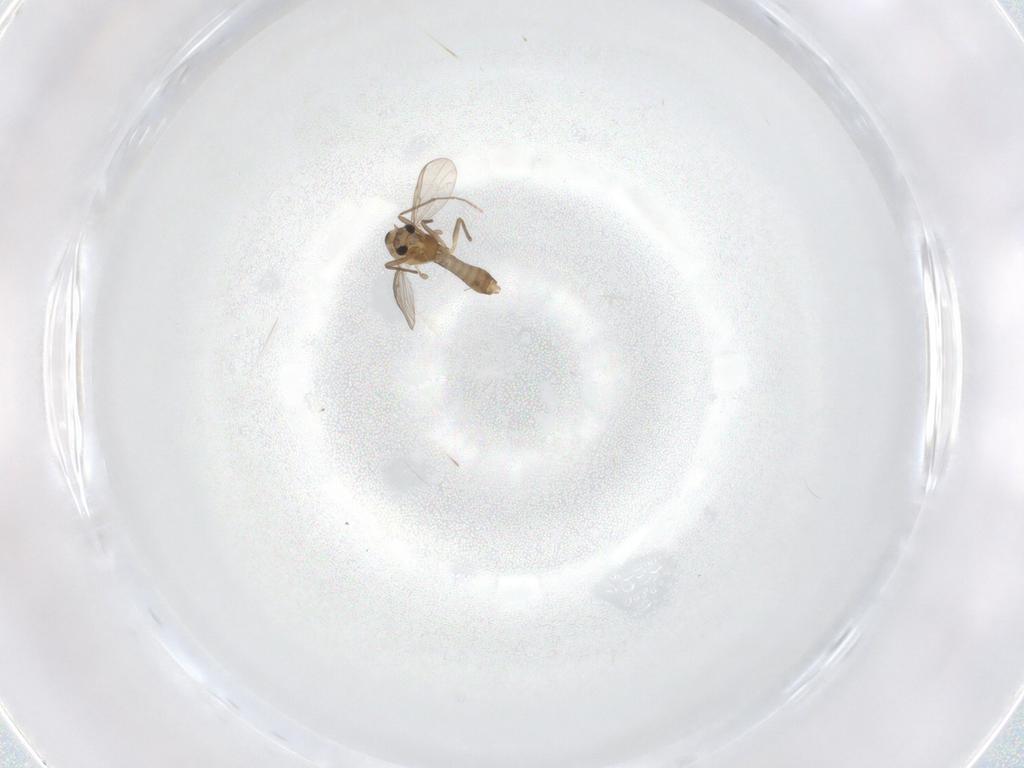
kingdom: Animalia
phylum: Arthropoda
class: Insecta
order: Diptera
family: Chironomidae
